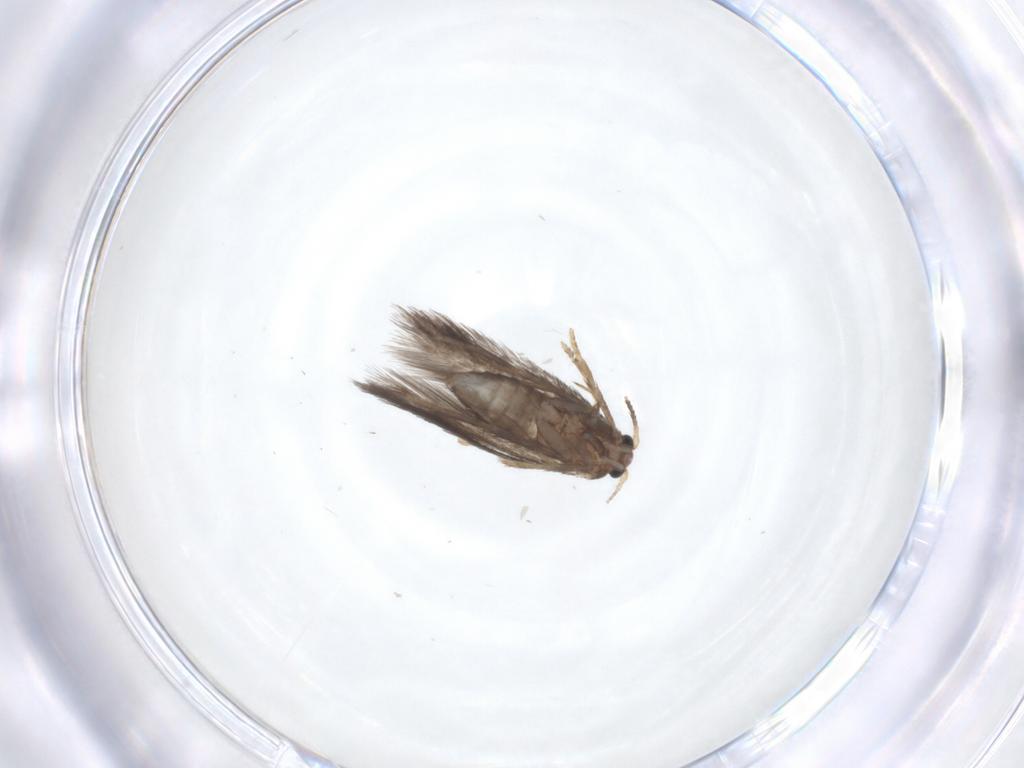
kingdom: Animalia
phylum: Arthropoda
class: Insecta
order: Lepidoptera
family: Nepticulidae
